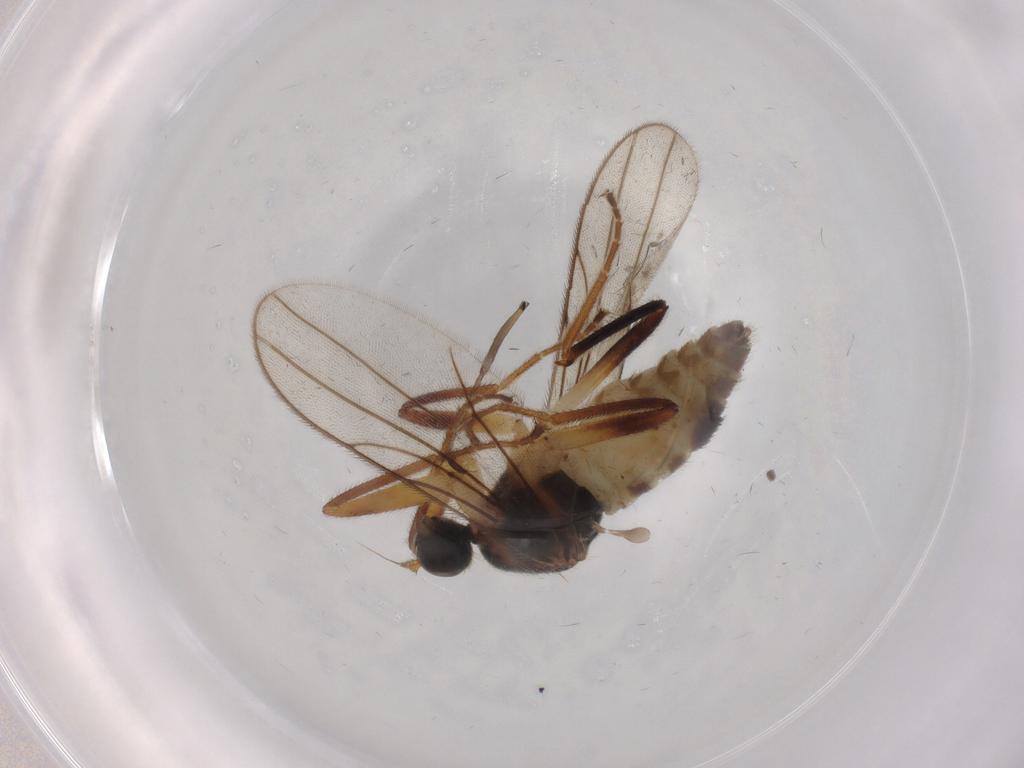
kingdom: Animalia
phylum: Arthropoda
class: Insecta
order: Diptera
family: Hybotidae
